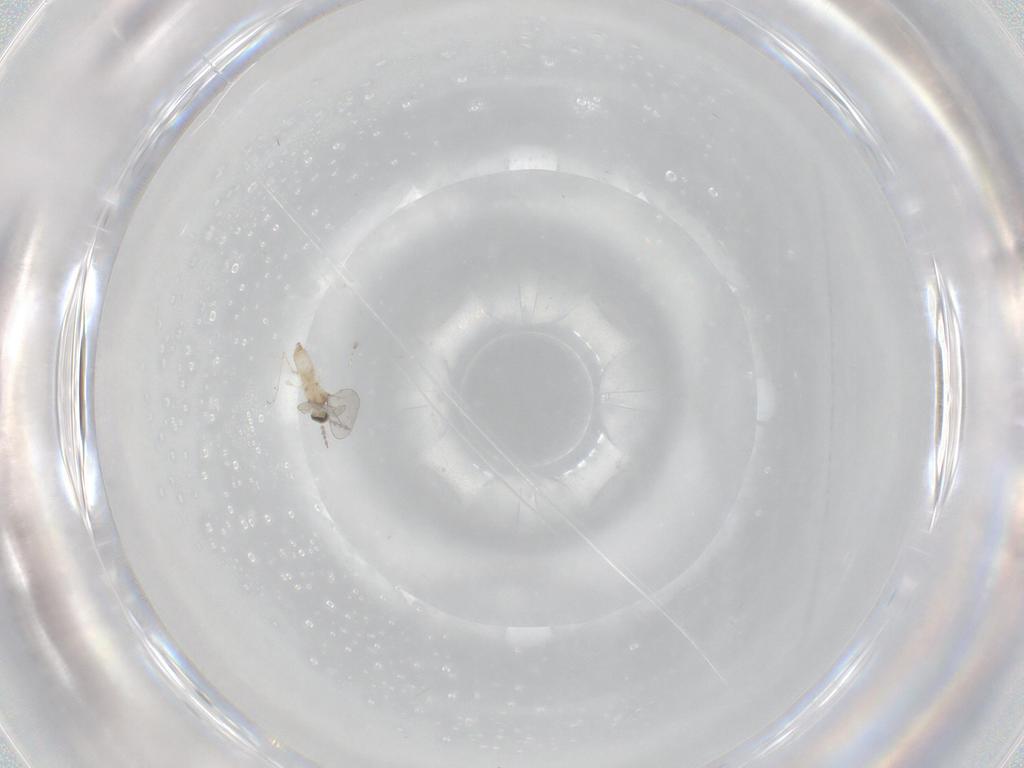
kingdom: Animalia
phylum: Arthropoda
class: Insecta
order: Diptera
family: Cecidomyiidae
